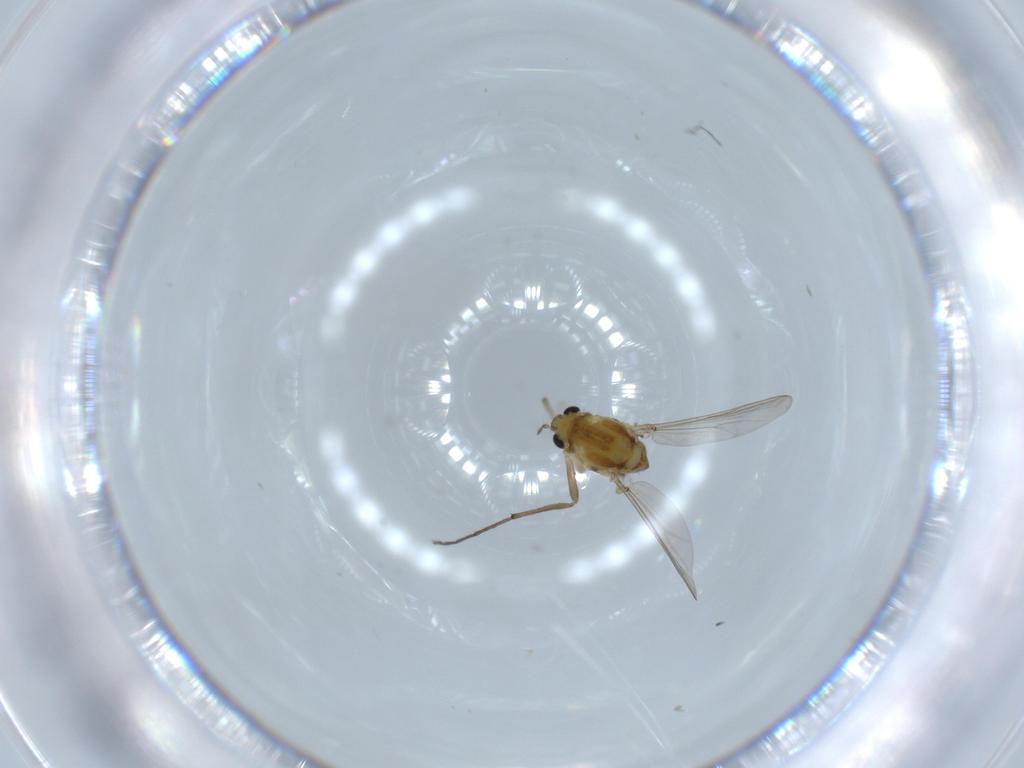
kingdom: Animalia
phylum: Arthropoda
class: Insecta
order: Diptera
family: Chironomidae
